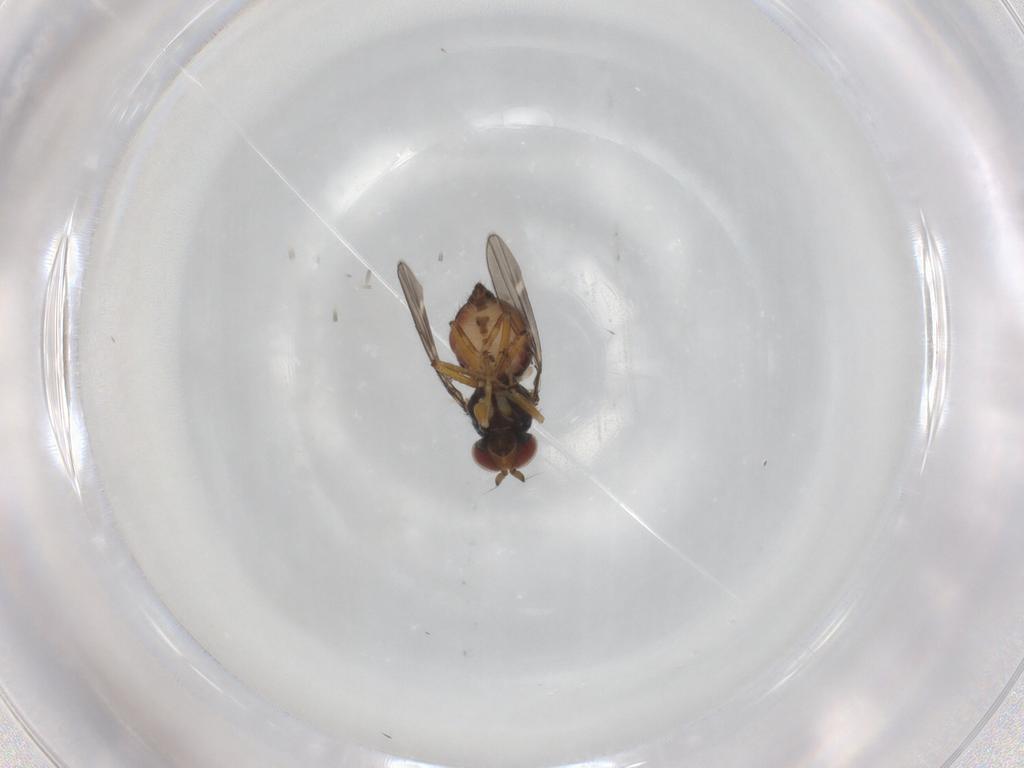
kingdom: Animalia
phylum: Arthropoda
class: Insecta
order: Diptera
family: Ephydridae
